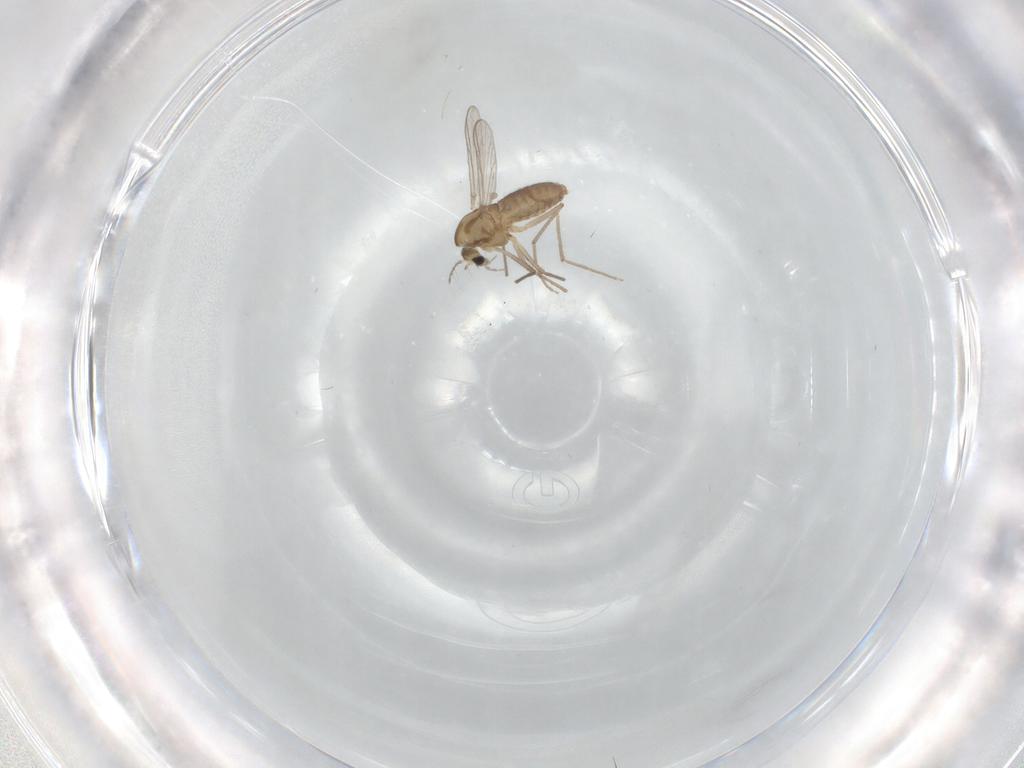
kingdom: Animalia
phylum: Arthropoda
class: Insecta
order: Diptera
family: Chironomidae
